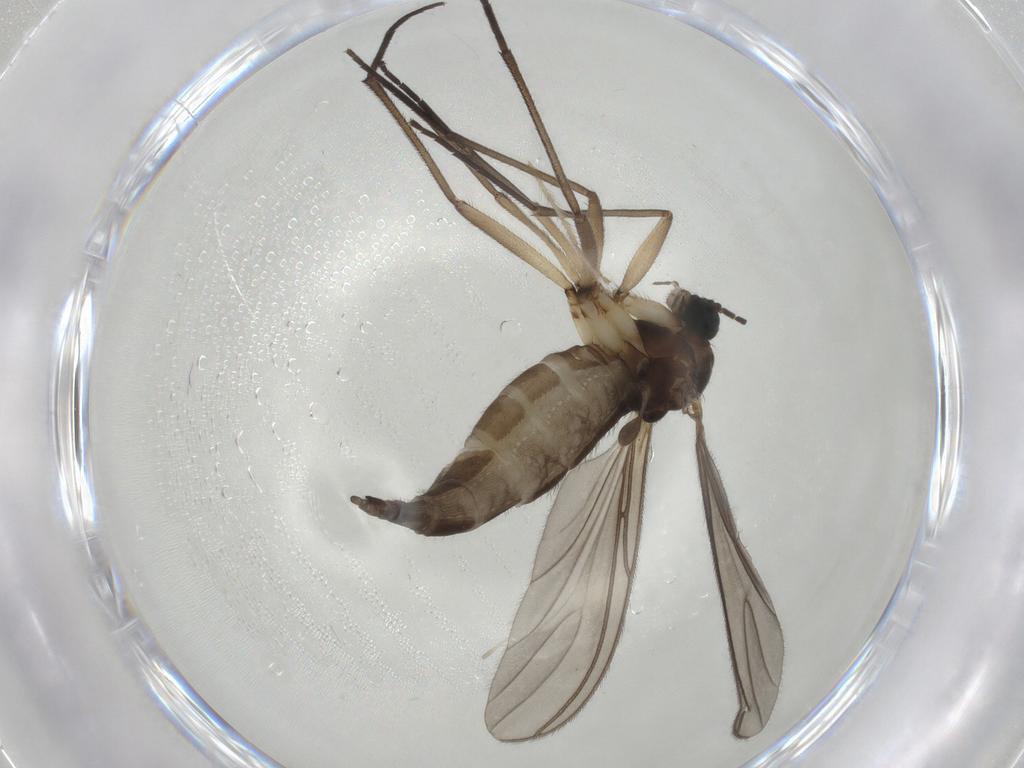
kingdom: Animalia
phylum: Arthropoda
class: Insecta
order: Diptera
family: Sciaridae
